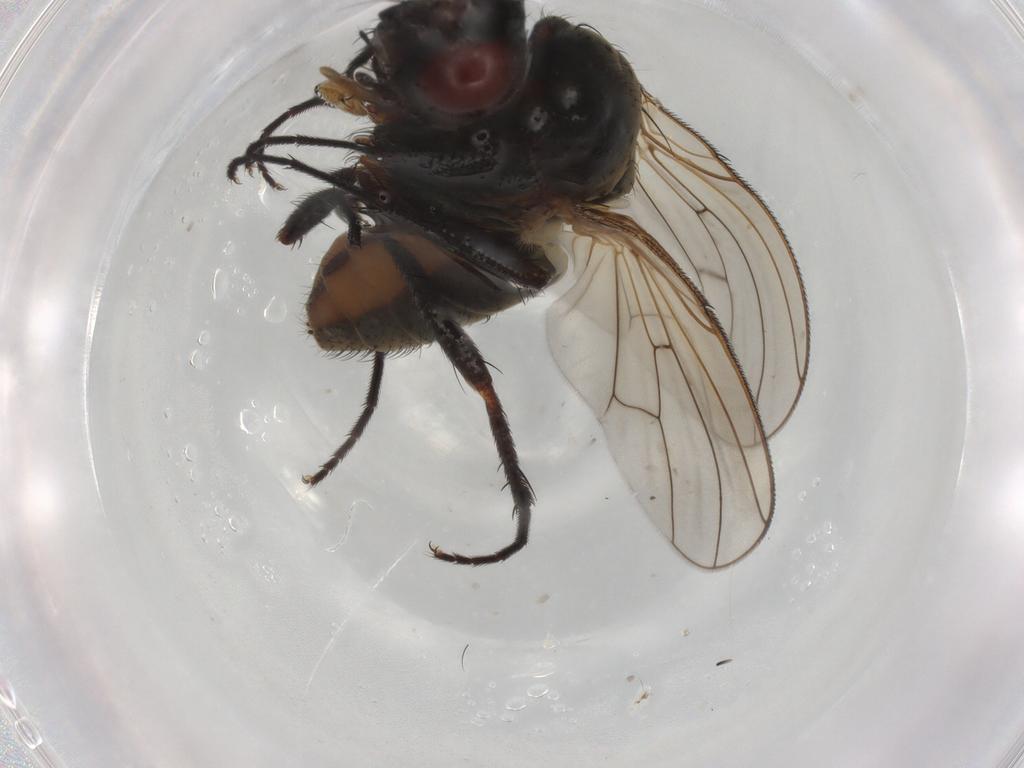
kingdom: Animalia
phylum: Arthropoda
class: Insecta
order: Diptera
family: Anthomyiidae
